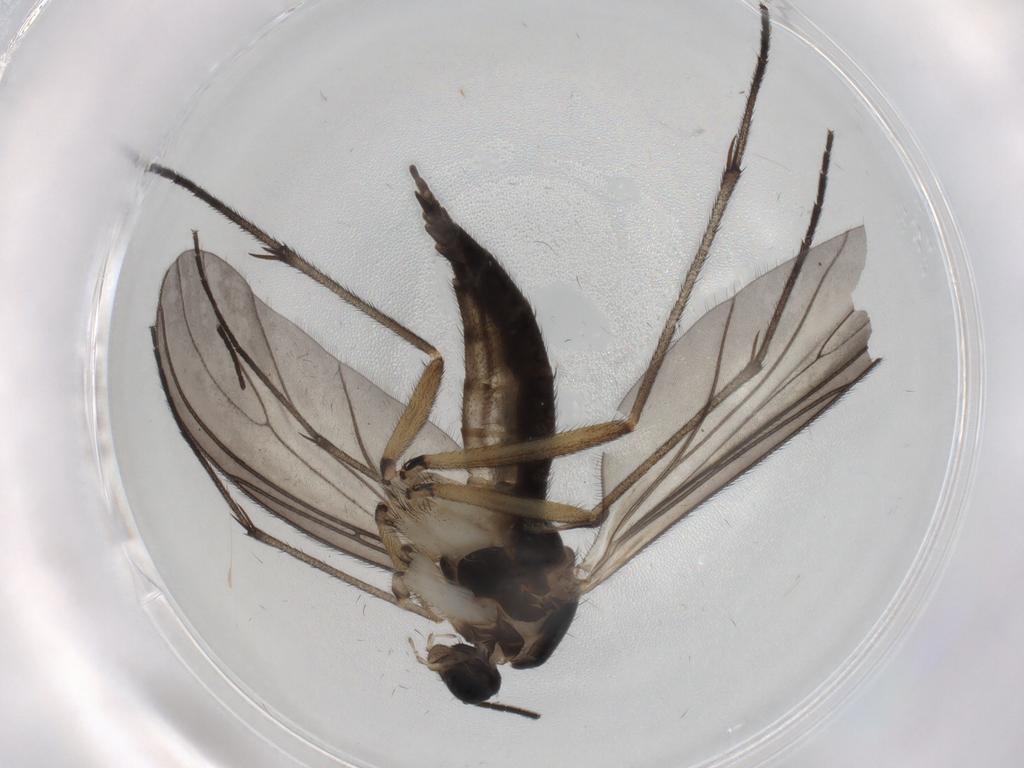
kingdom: Animalia
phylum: Arthropoda
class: Insecta
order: Diptera
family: Sciaridae
